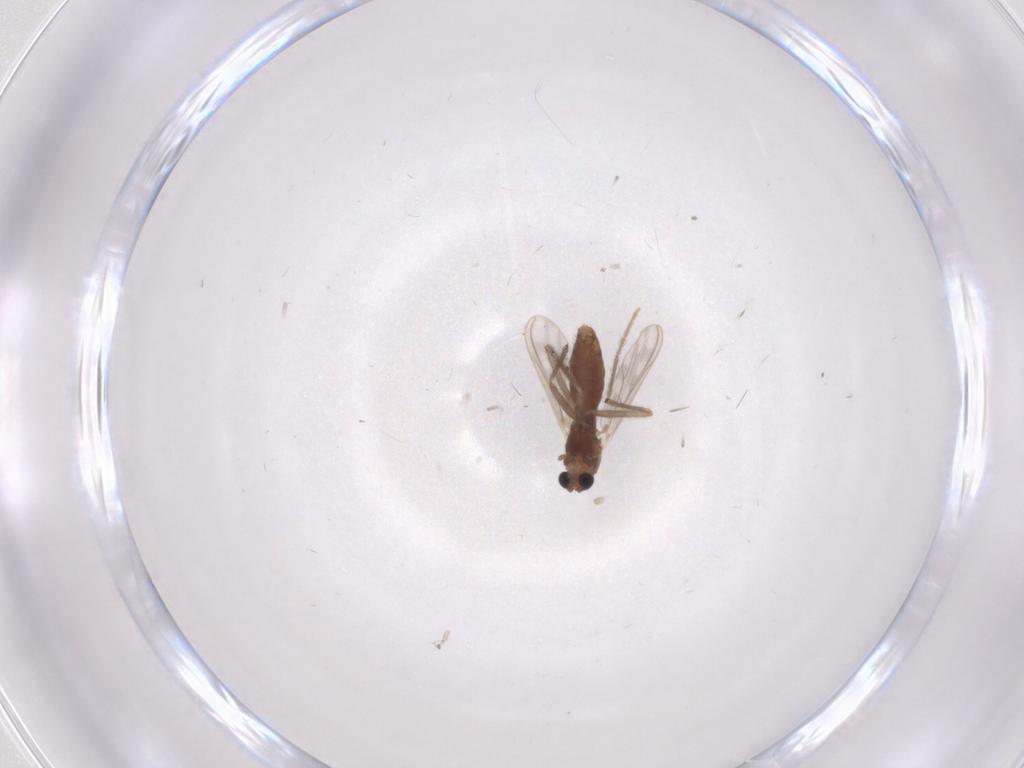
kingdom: Animalia
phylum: Arthropoda
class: Insecta
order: Diptera
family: Chironomidae
